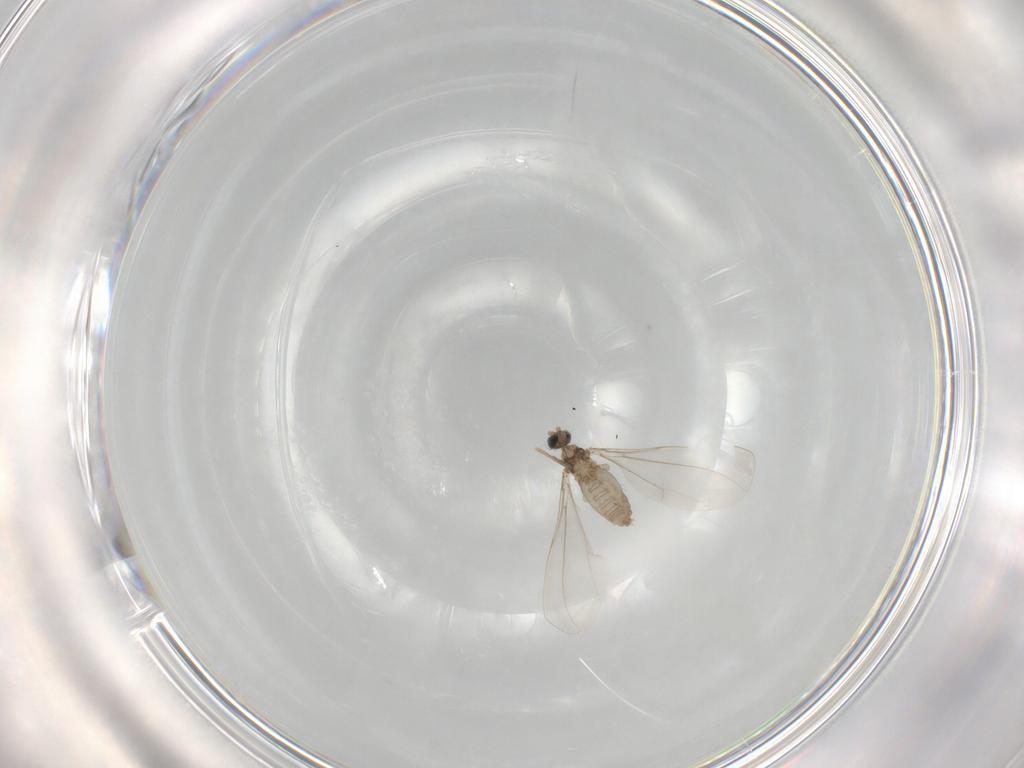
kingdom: Animalia
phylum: Arthropoda
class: Insecta
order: Diptera
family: Cecidomyiidae
